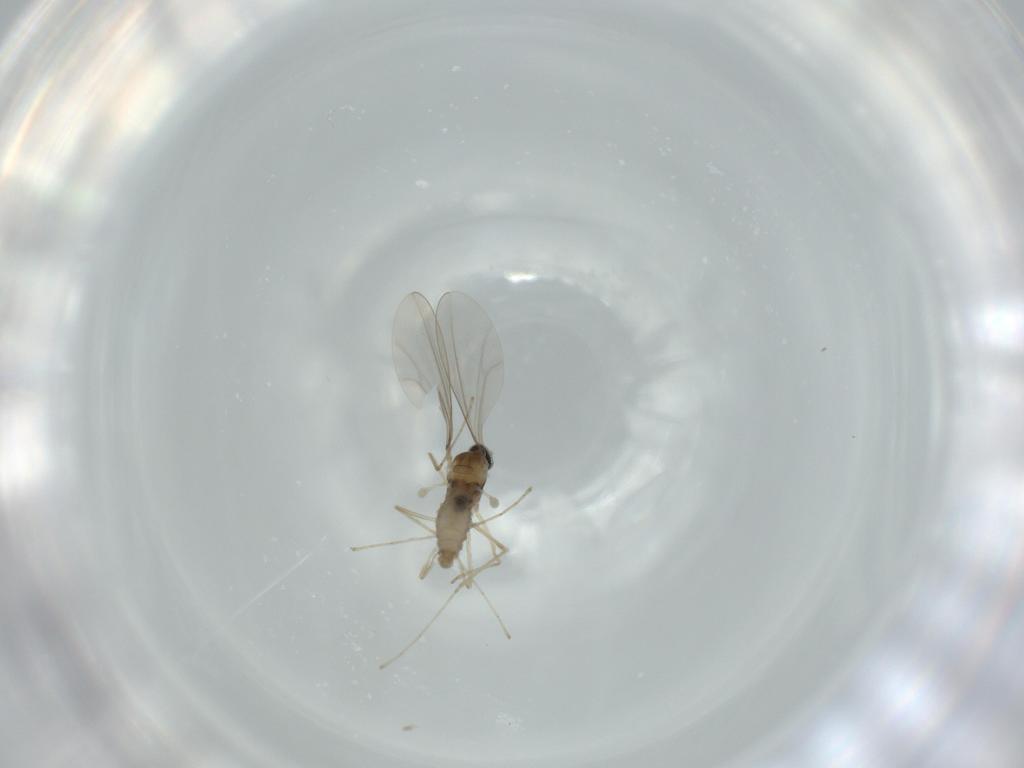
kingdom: Animalia
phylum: Arthropoda
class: Insecta
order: Diptera
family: Cecidomyiidae
